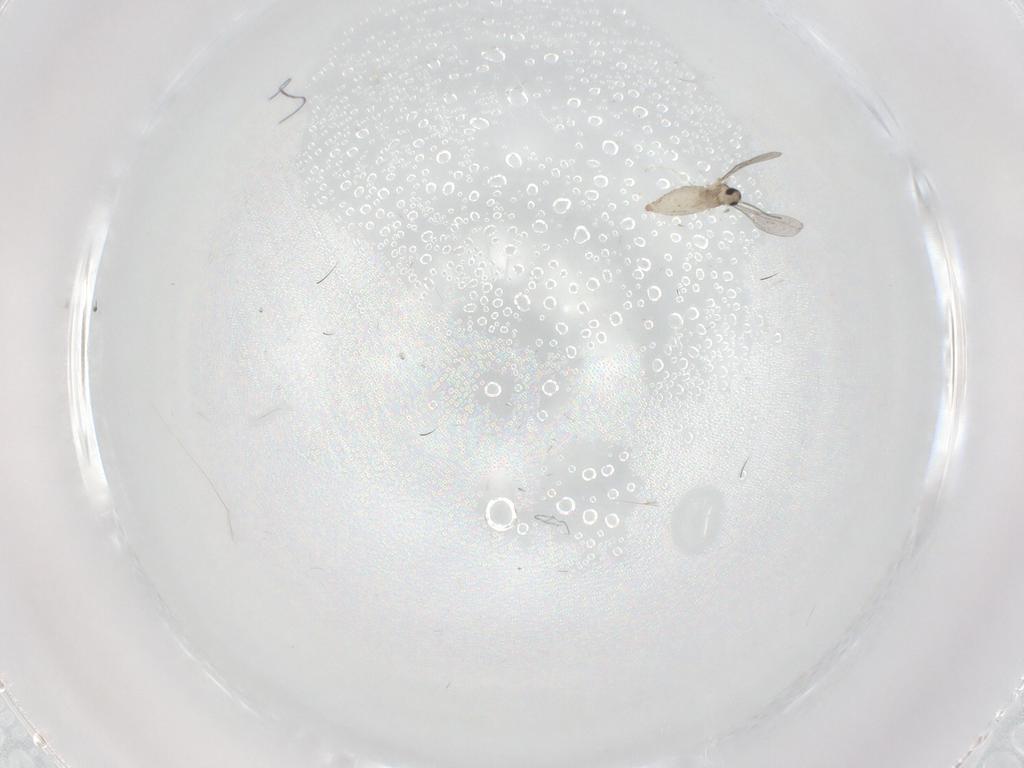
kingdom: Animalia
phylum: Arthropoda
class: Insecta
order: Diptera
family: Cecidomyiidae
